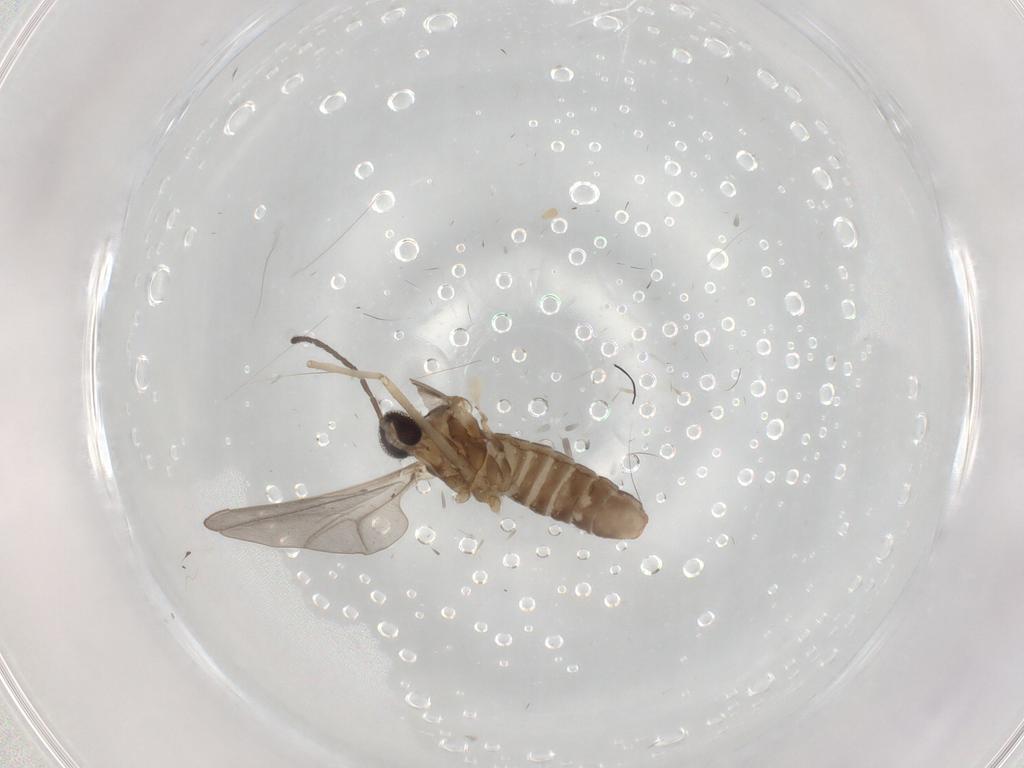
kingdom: Animalia
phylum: Arthropoda
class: Insecta
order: Diptera
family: Cecidomyiidae
